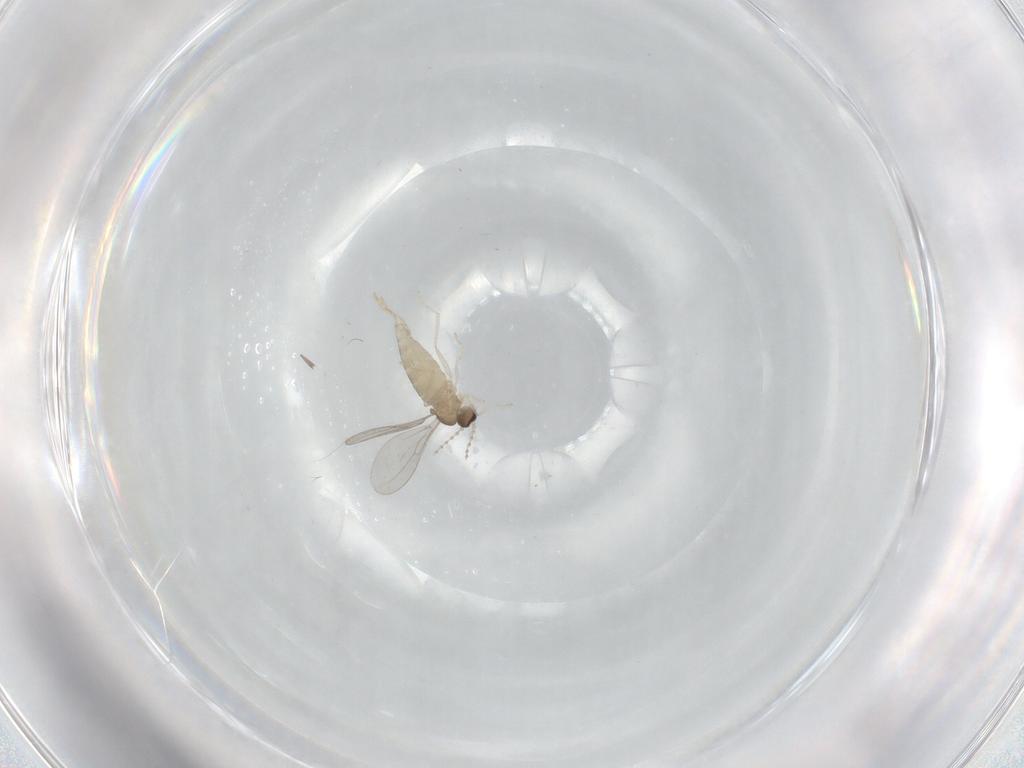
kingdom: Animalia
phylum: Arthropoda
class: Insecta
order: Diptera
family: Cecidomyiidae
